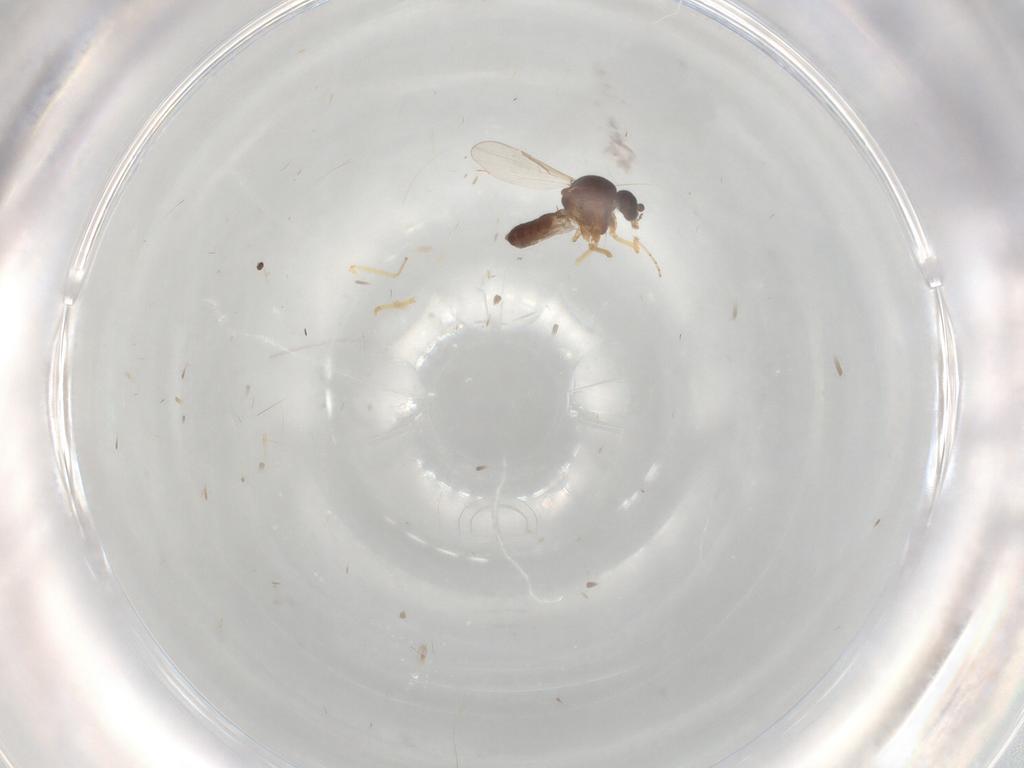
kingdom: Animalia
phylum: Arthropoda
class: Insecta
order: Diptera
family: Ceratopogonidae
